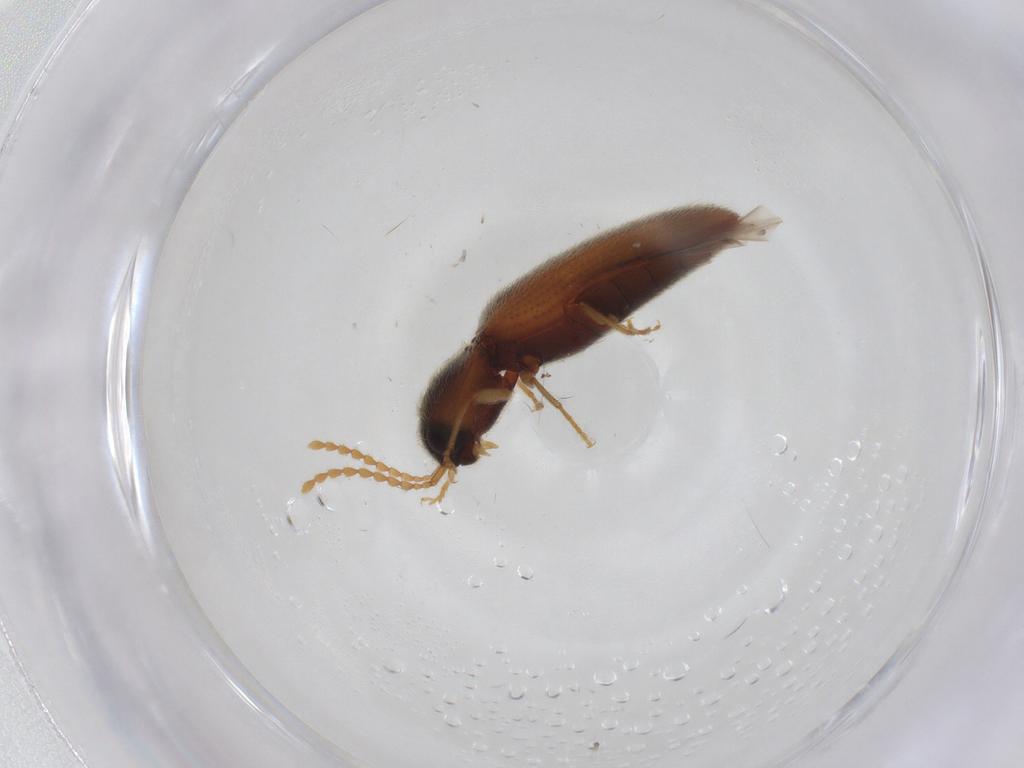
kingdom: Animalia
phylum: Arthropoda
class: Insecta
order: Coleoptera
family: Elateridae
